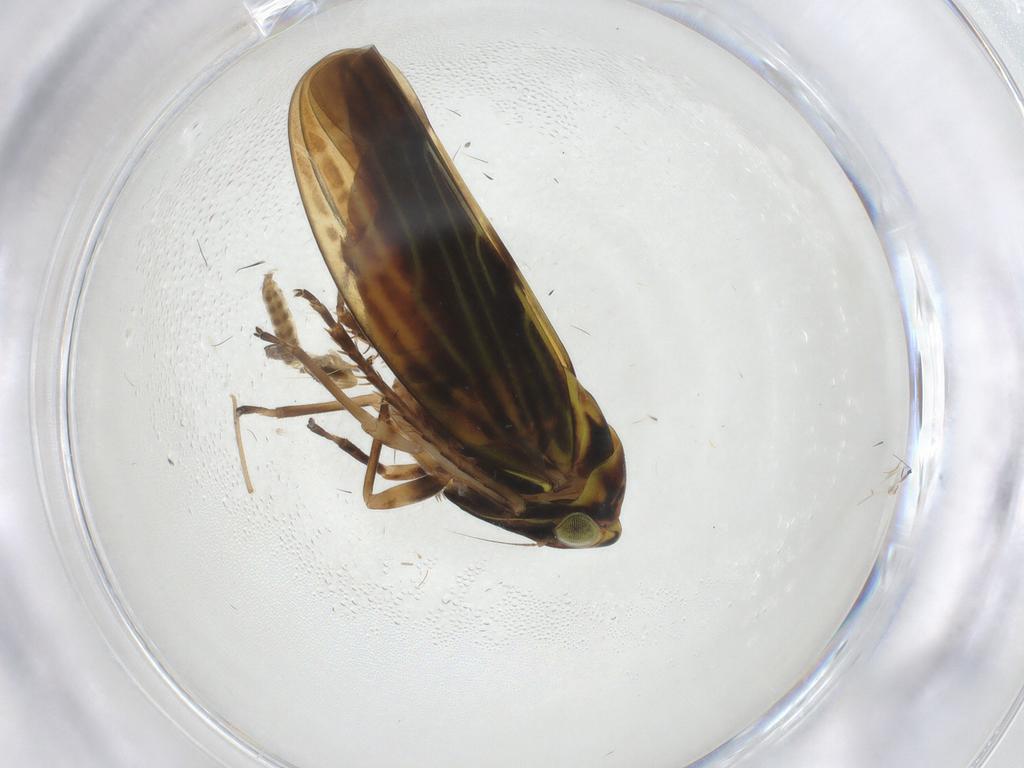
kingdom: Animalia
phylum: Arthropoda
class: Insecta
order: Hemiptera
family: Cicadellidae
